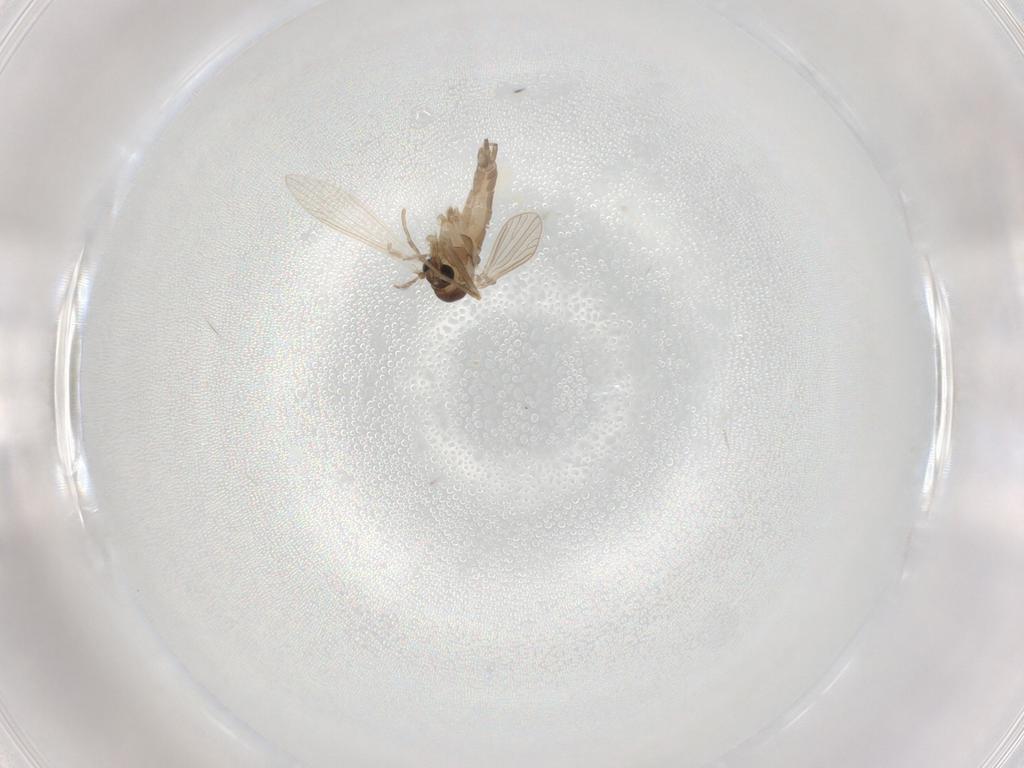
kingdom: Animalia
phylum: Arthropoda
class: Insecta
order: Diptera
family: Psychodidae
